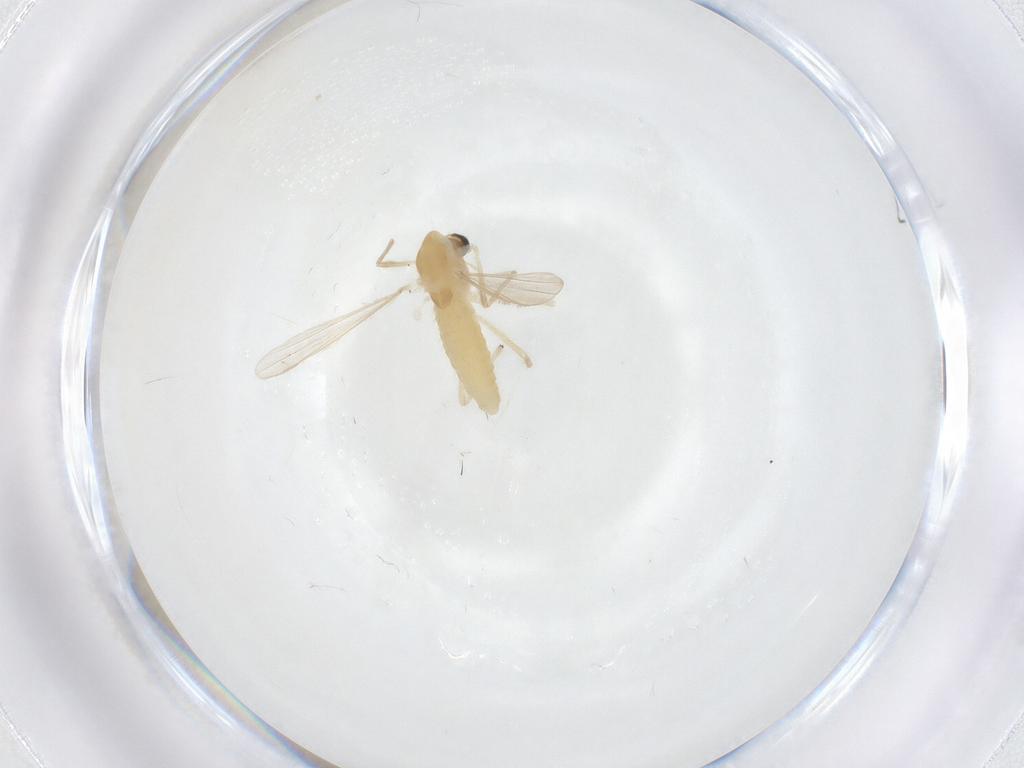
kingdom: Animalia
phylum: Arthropoda
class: Insecta
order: Diptera
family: Chironomidae
